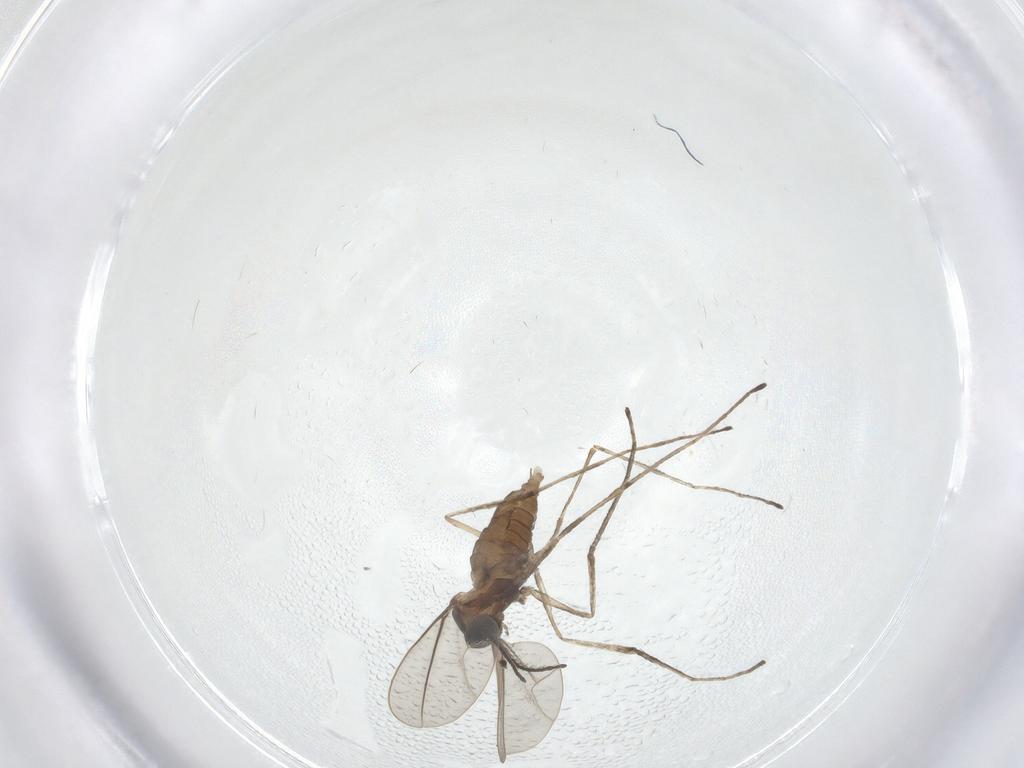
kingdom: Animalia
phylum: Arthropoda
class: Insecta
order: Diptera
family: Cecidomyiidae
